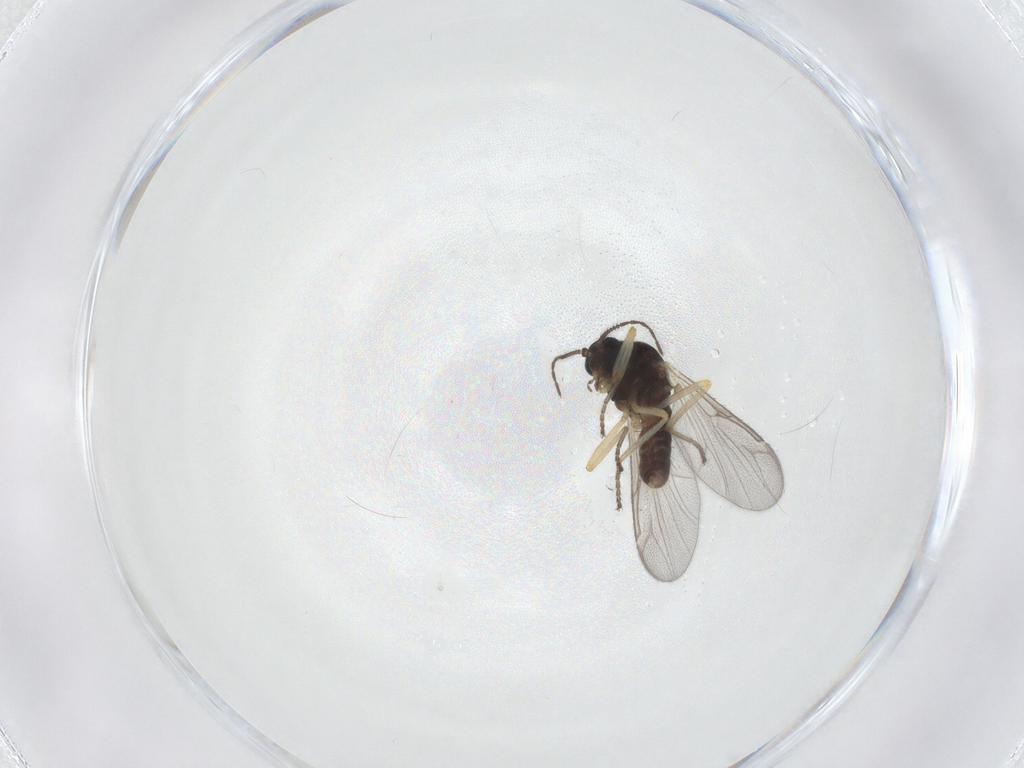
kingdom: Animalia
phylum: Arthropoda
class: Insecta
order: Diptera
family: Ceratopogonidae
